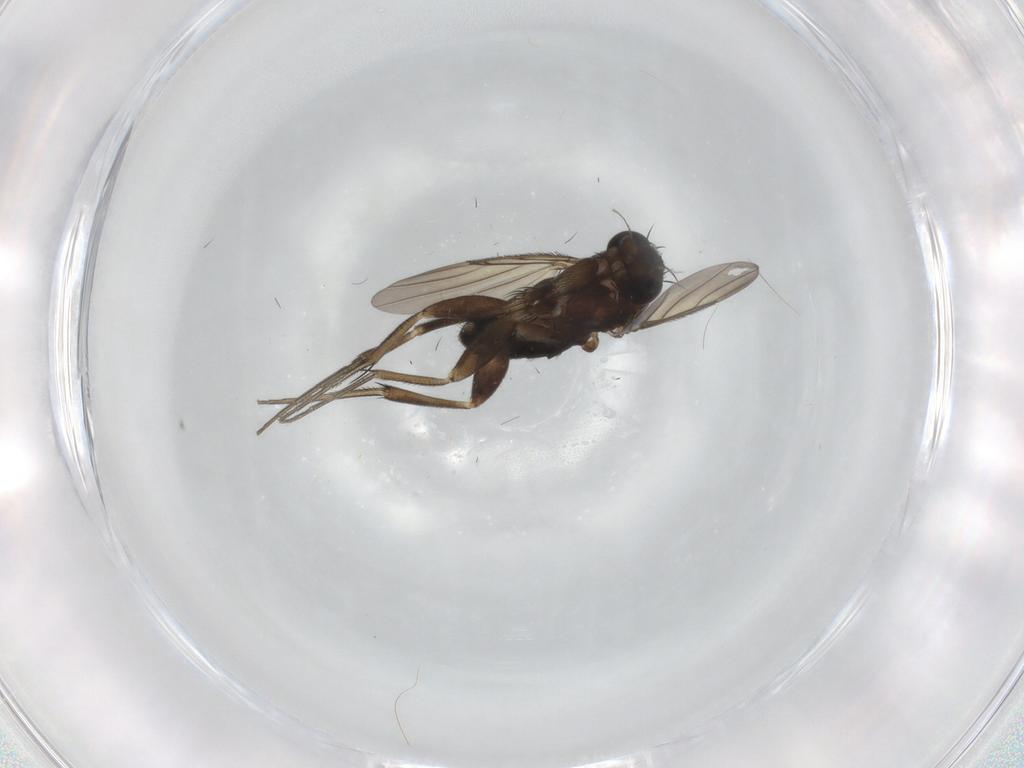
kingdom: Animalia
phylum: Arthropoda
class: Insecta
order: Diptera
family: Phoridae
